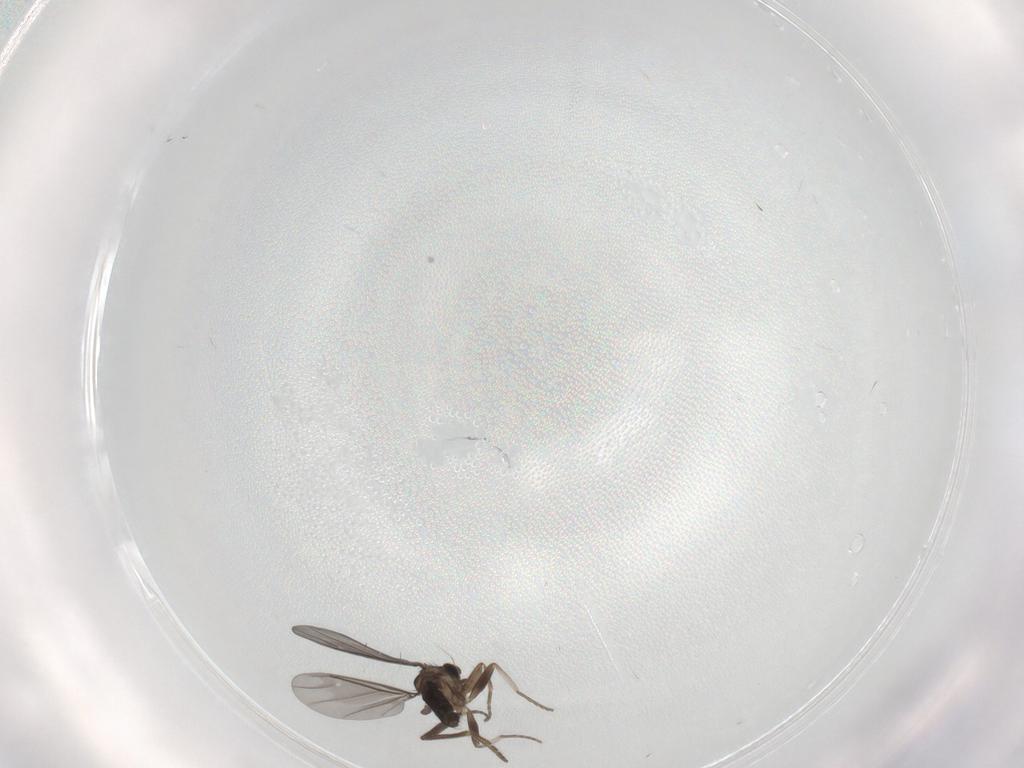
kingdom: Animalia
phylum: Arthropoda
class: Insecta
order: Diptera
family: Phoridae
